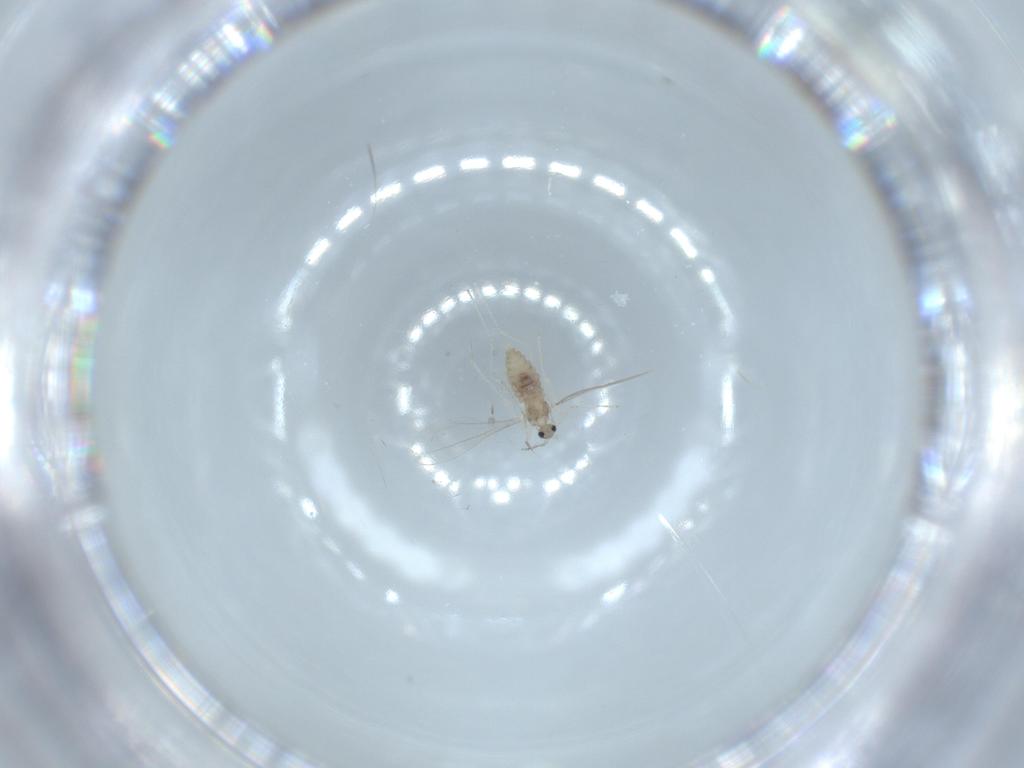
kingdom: Animalia
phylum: Arthropoda
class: Insecta
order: Diptera
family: Cecidomyiidae
